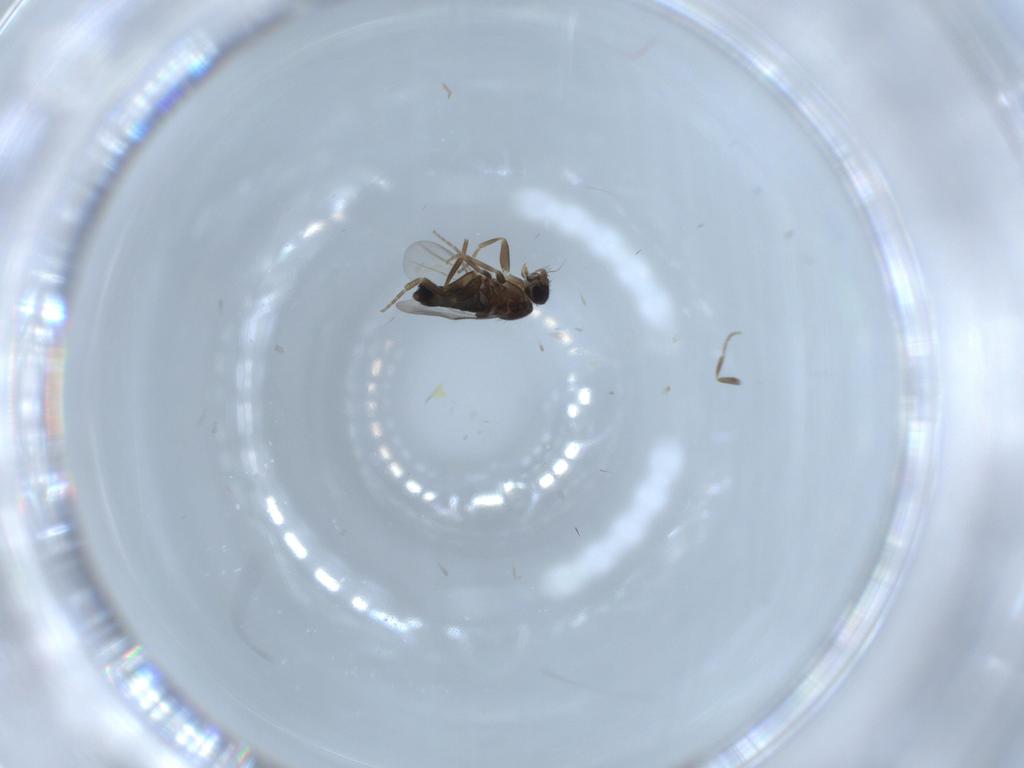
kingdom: Animalia
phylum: Arthropoda
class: Insecta
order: Diptera
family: Phoridae
